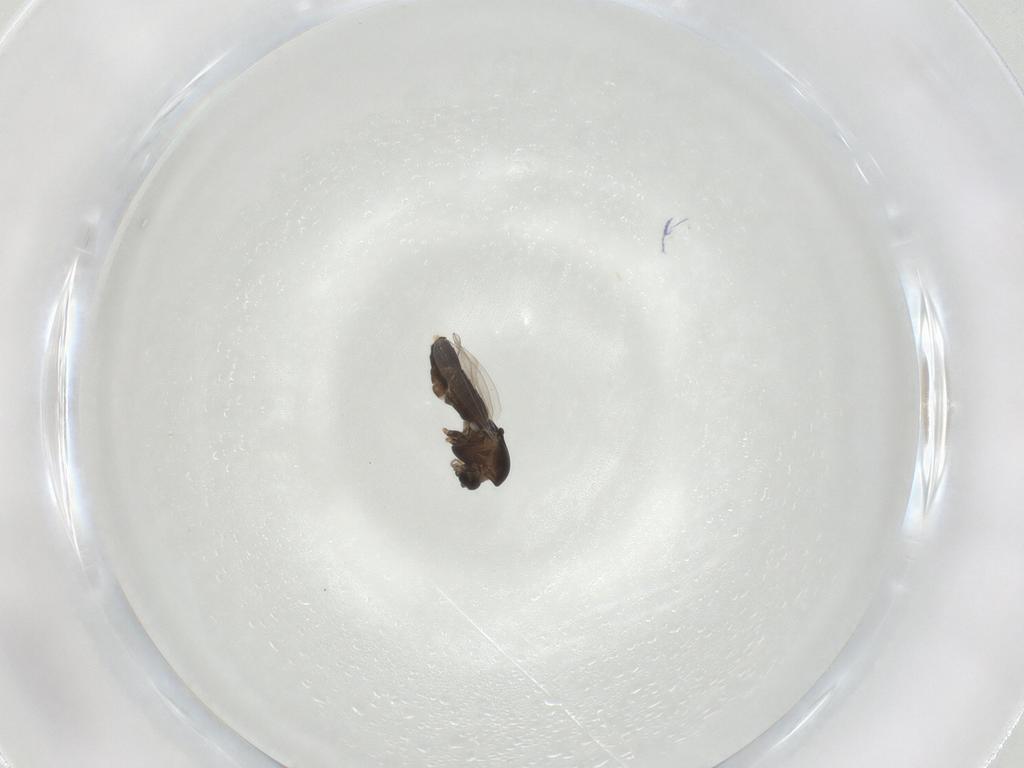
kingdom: Animalia
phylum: Arthropoda
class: Insecta
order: Diptera
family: Chironomidae
